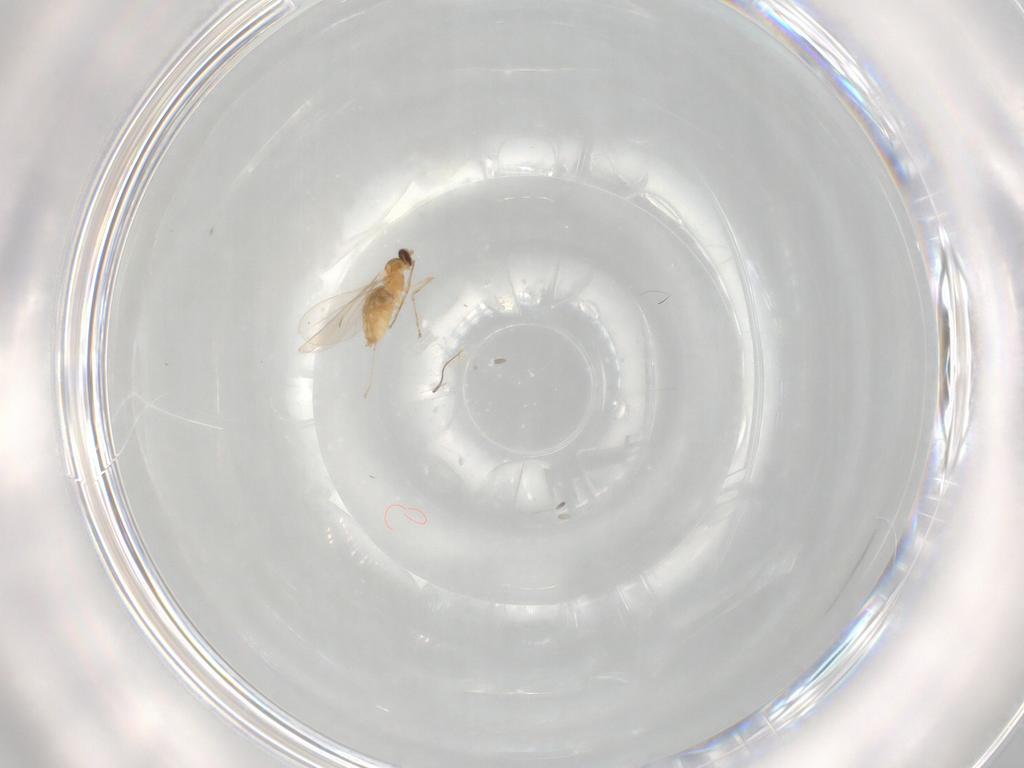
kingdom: Animalia
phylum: Arthropoda
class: Insecta
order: Diptera
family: Cecidomyiidae
